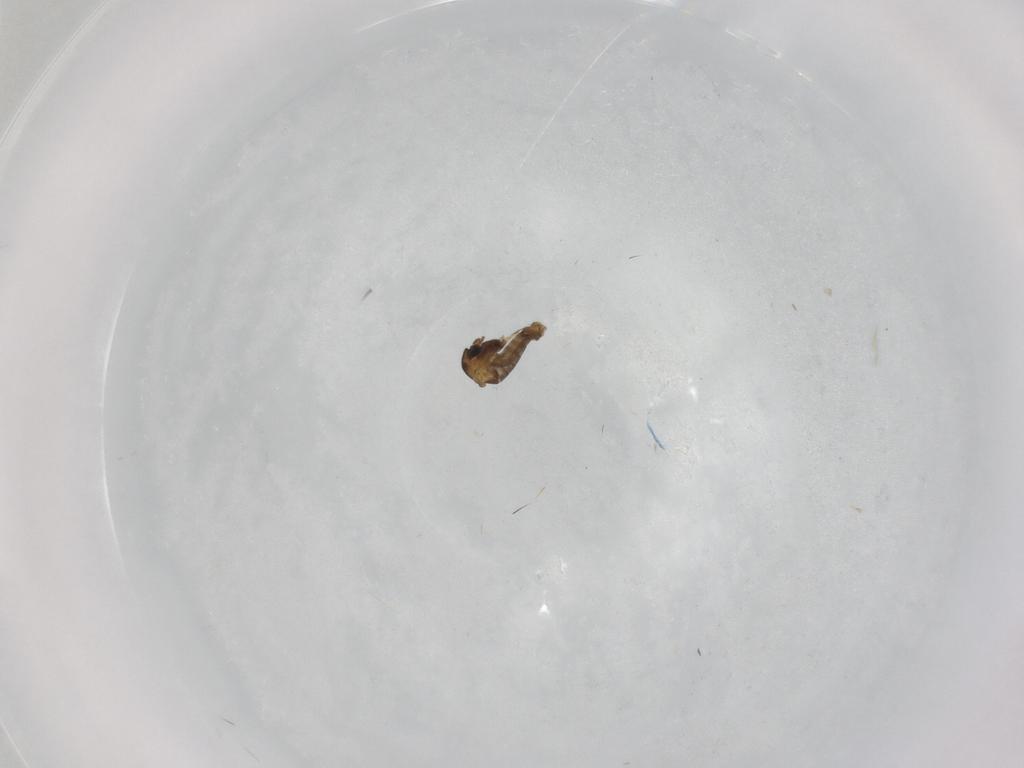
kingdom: Animalia
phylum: Arthropoda
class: Insecta
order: Diptera
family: Chironomidae
